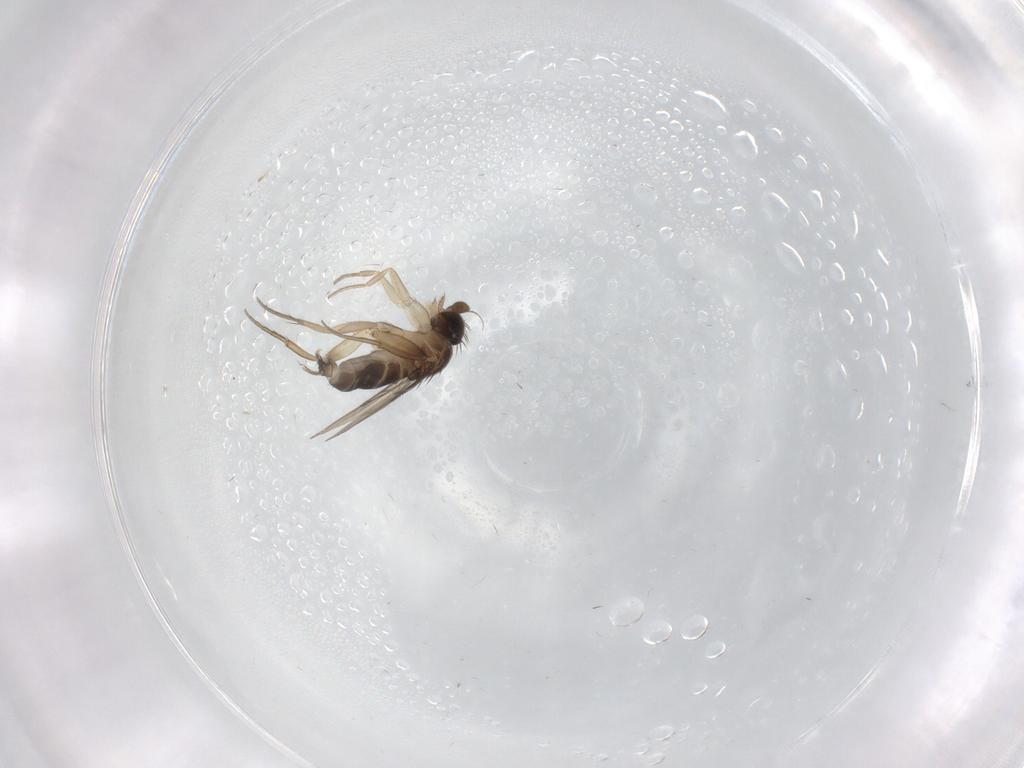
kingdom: Animalia
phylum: Arthropoda
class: Insecta
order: Diptera
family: Phoridae
